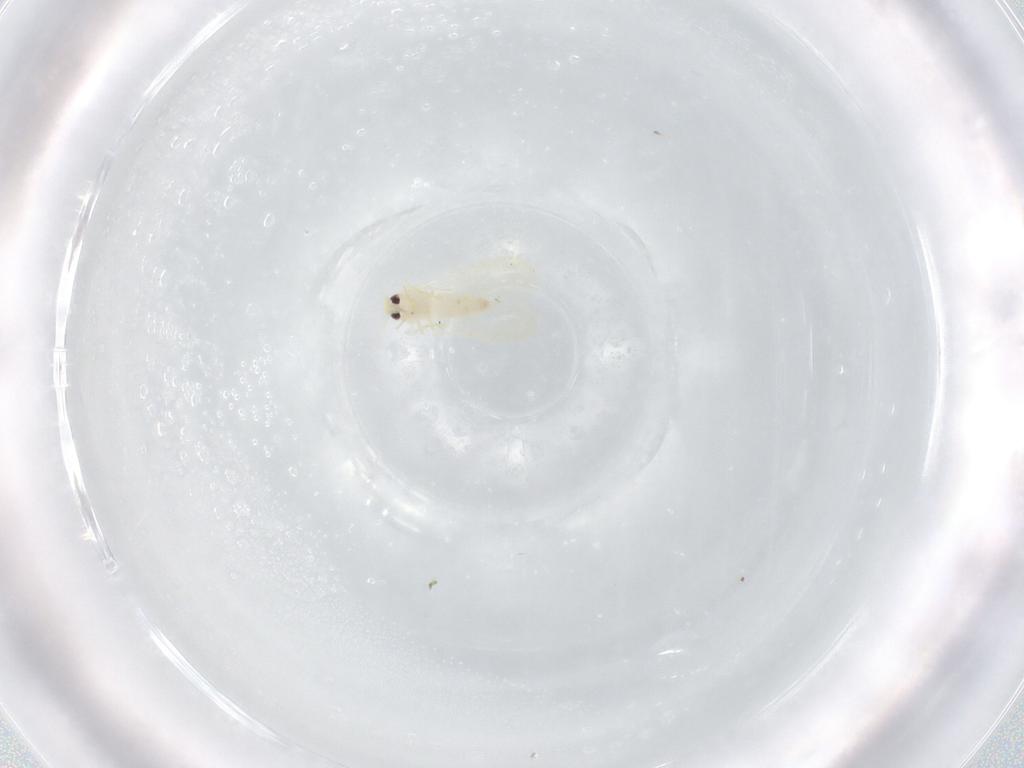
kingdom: Animalia
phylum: Arthropoda
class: Insecta
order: Hemiptera
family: Aleyrodidae
